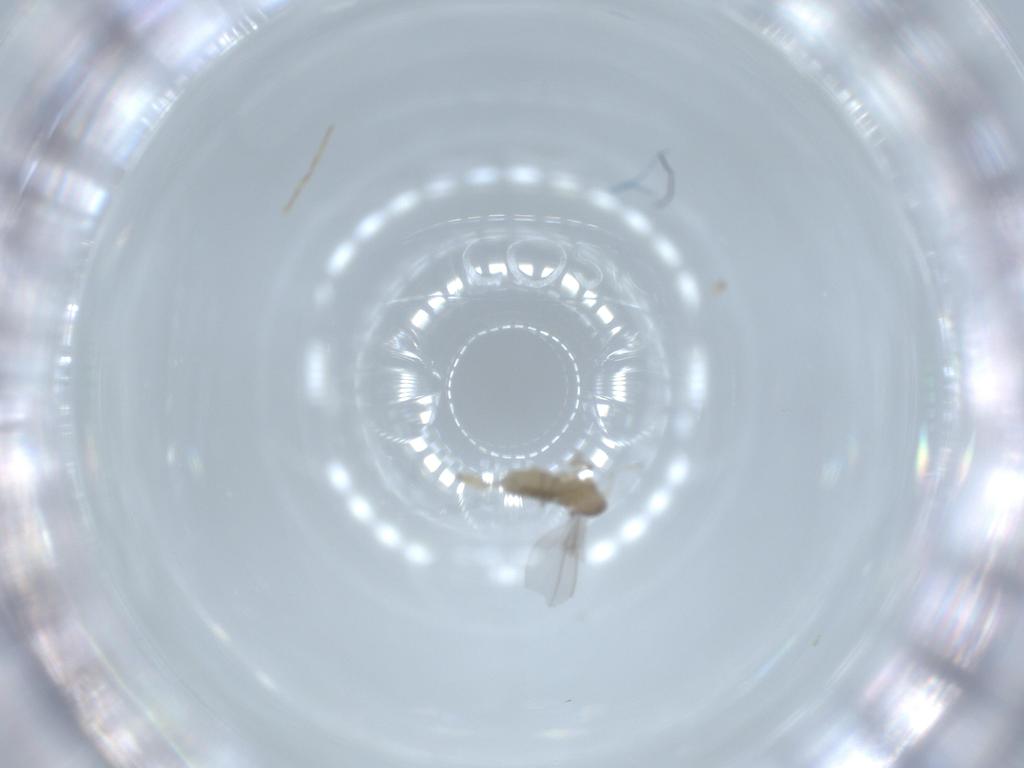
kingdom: Animalia
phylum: Arthropoda
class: Insecta
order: Diptera
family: Cecidomyiidae
